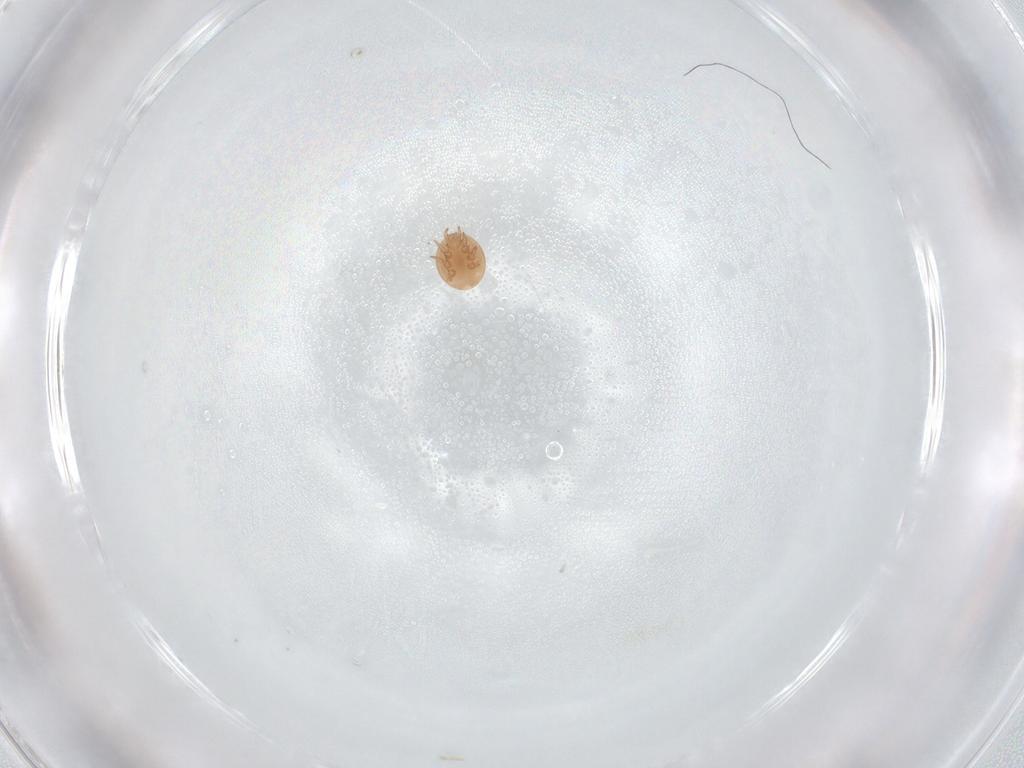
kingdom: Animalia
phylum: Arthropoda
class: Arachnida
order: Mesostigmata
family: Trematuridae
